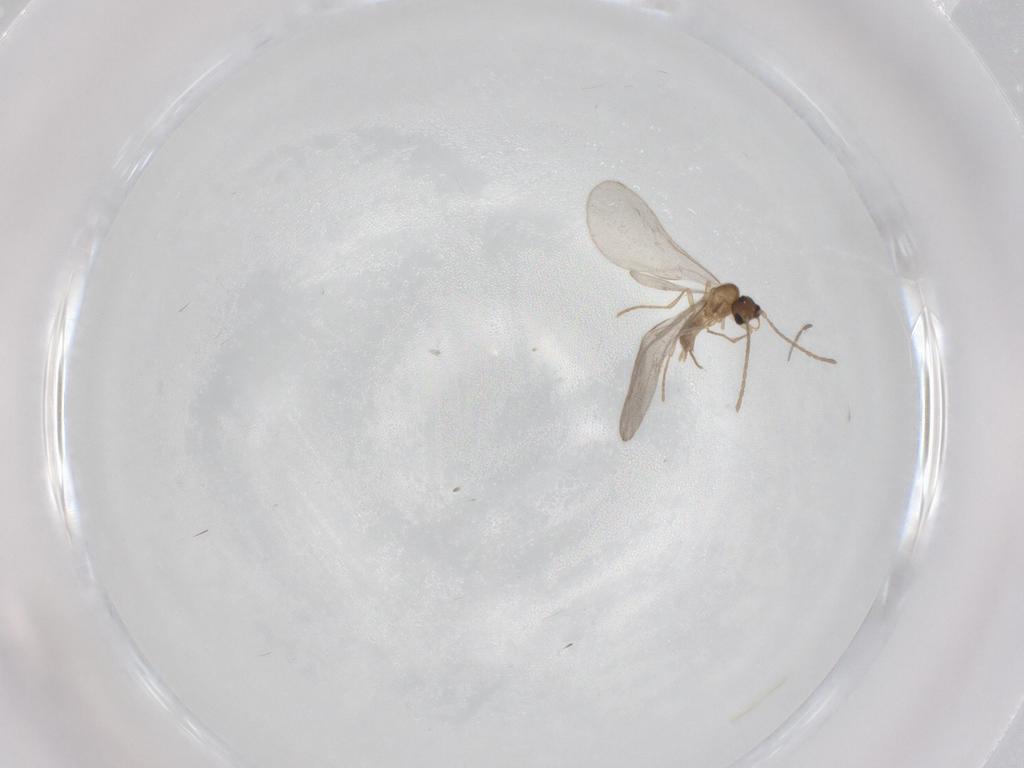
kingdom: Animalia
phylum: Arthropoda
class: Insecta
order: Hymenoptera
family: Formicidae
